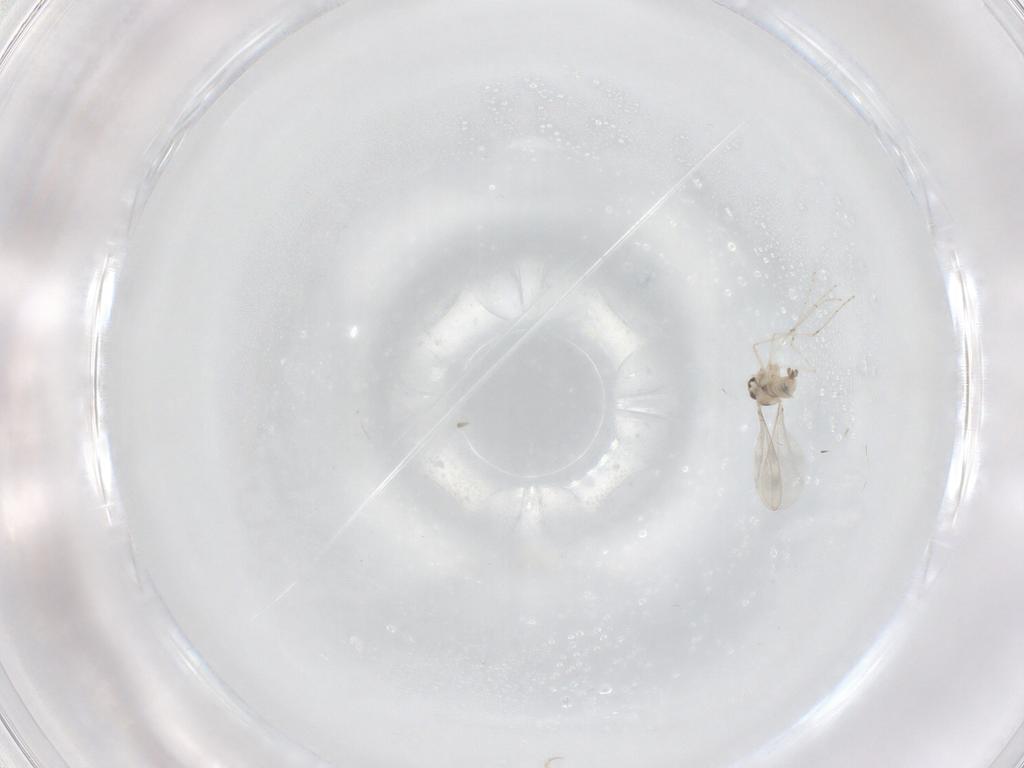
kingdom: Animalia
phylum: Arthropoda
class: Insecta
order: Diptera
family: Cecidomyiidae
